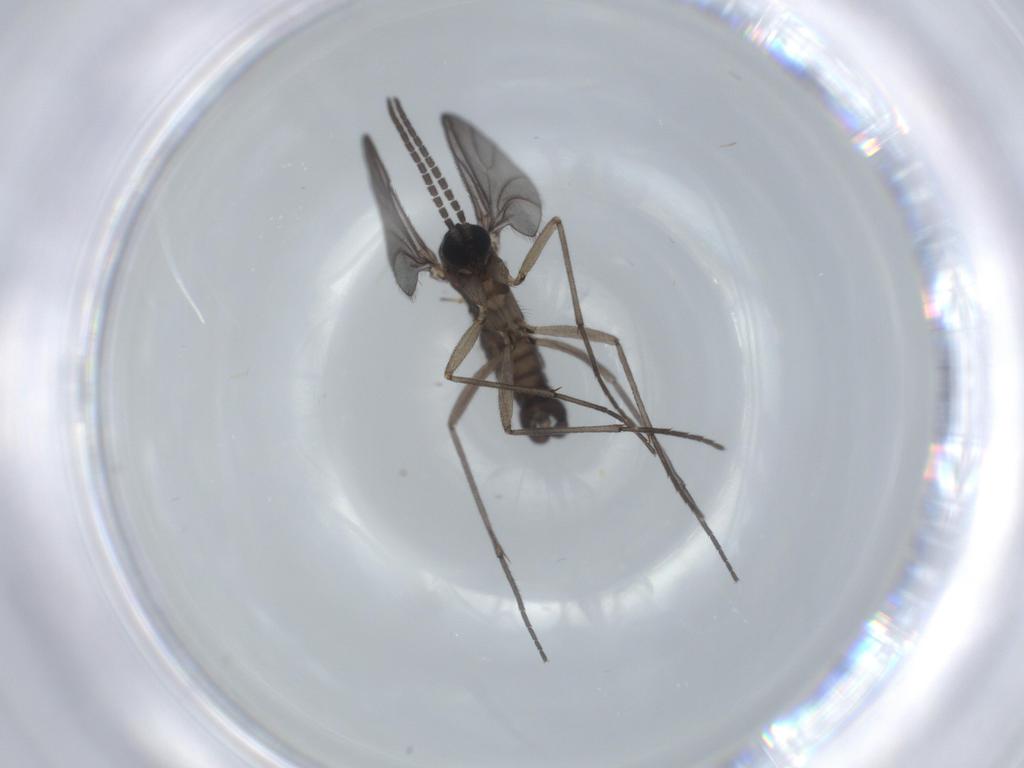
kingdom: Animalia
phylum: Arthropoda
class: Insecta
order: Diptera
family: Sciaridae
